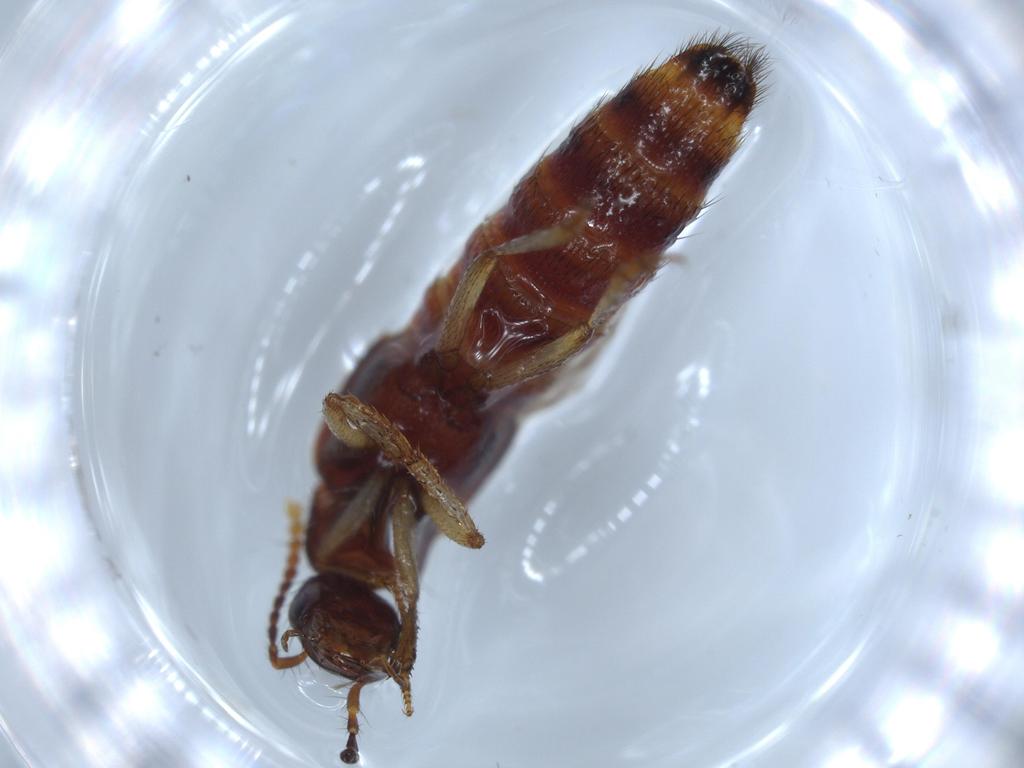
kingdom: Animalia
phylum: Arthropoda
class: Insecta
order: Coleoptera
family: Staphylinidae
